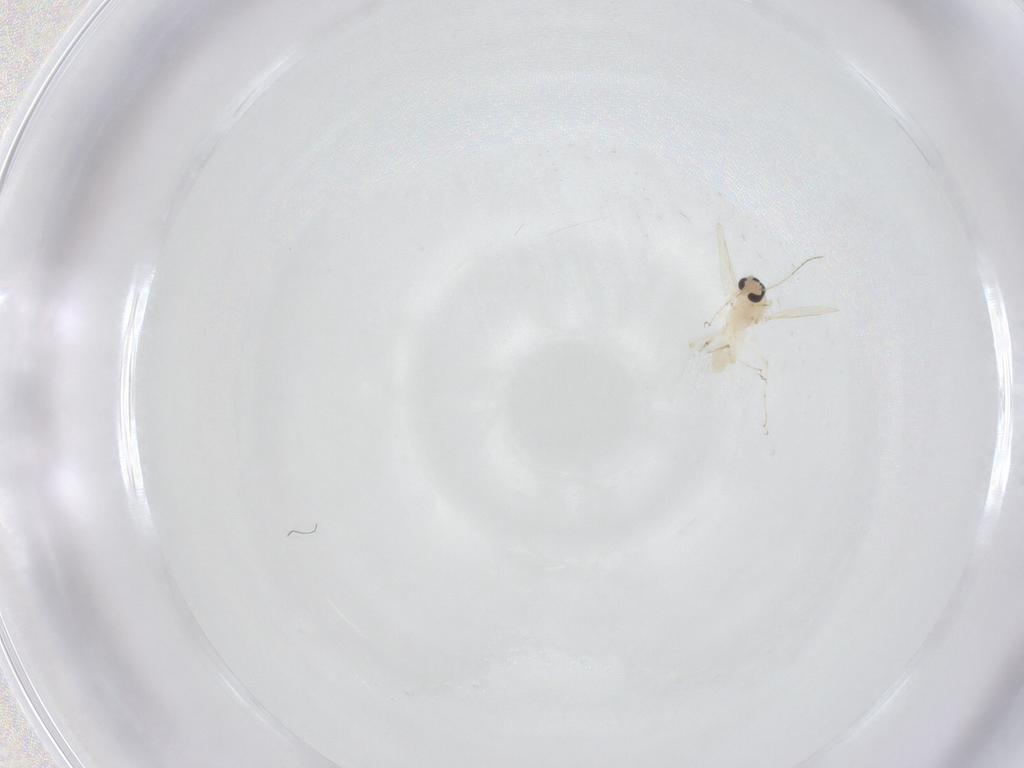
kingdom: Animalia
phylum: Arthropoda
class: Insecta
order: Diptera
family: Ceratopogonidae
